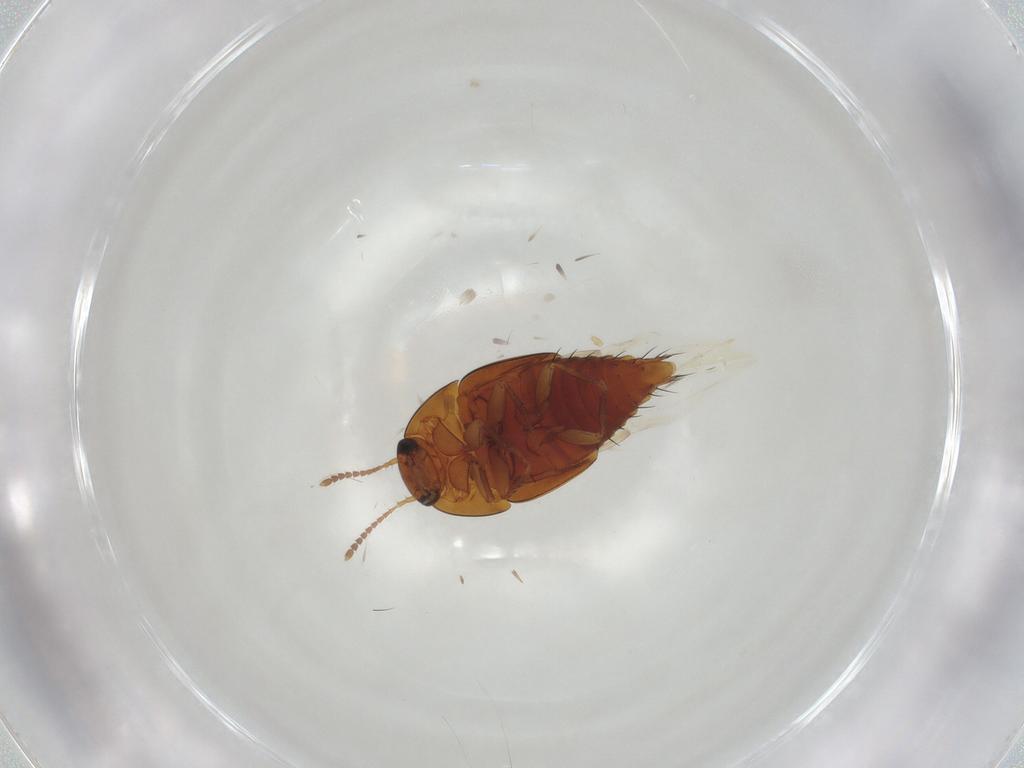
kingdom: Animalia
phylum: Arthropoda
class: Insecta
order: Coleoptera
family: Staphylinidae
